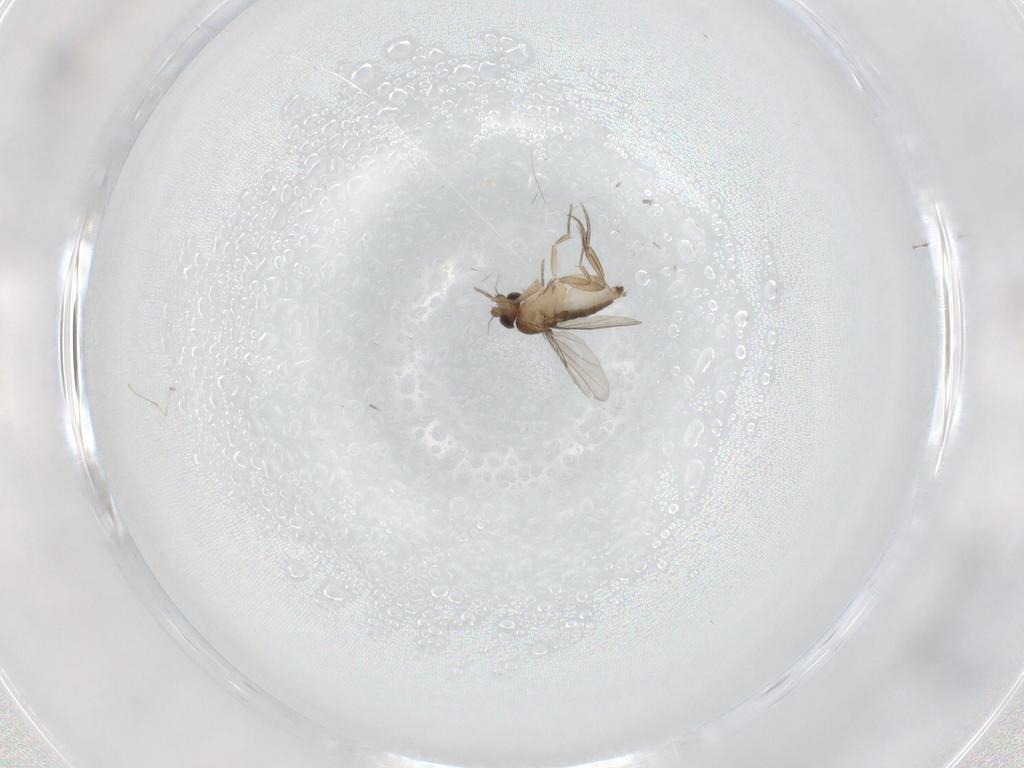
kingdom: Animalia
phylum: Arthropoda
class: Insecta
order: Diptera
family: Cecidomyiidae
